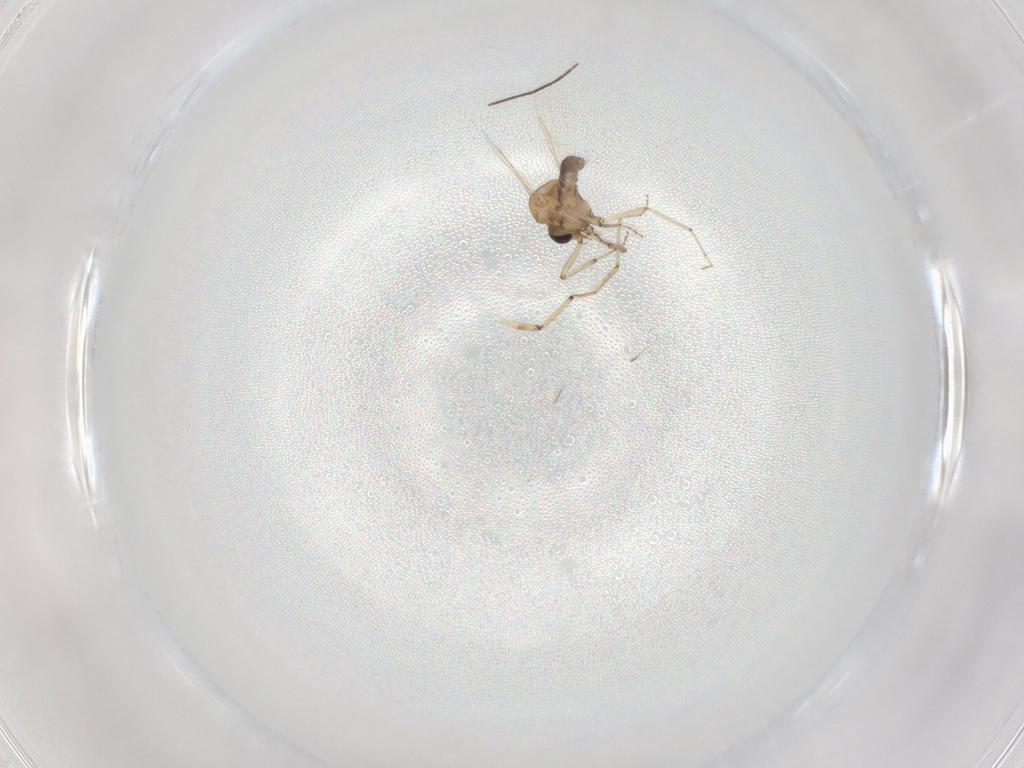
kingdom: Animalia
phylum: Arthropoda
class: Insecta
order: Diptera
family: Ceratopogonidae
